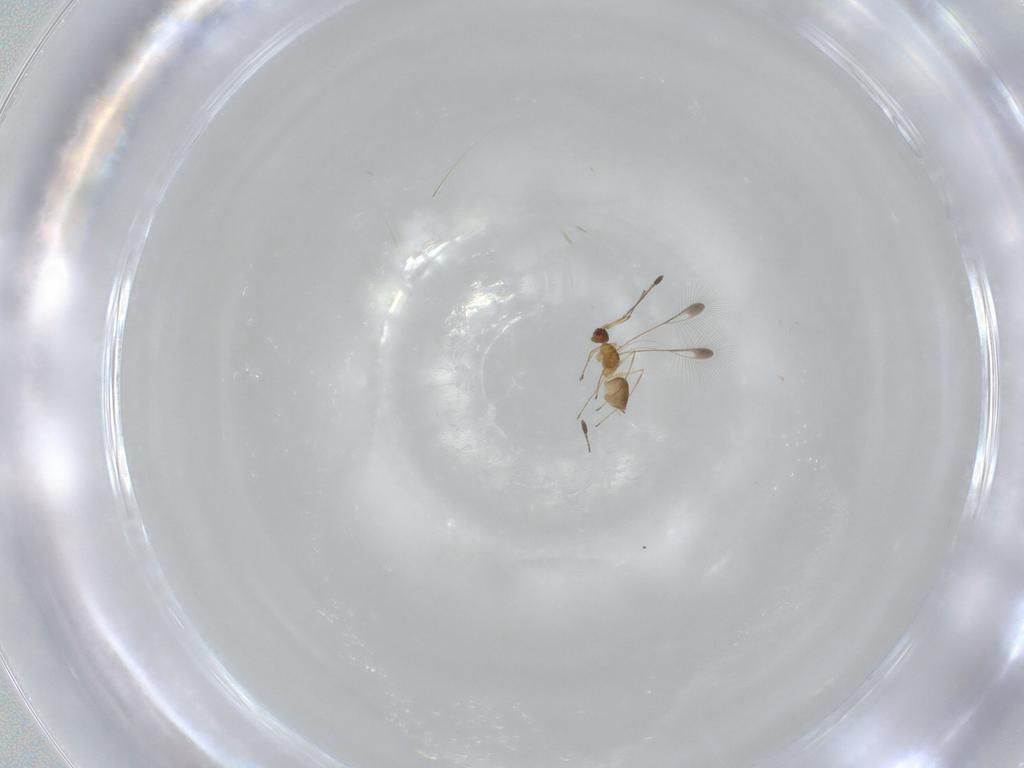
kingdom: Animalia
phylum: Arthropoda
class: Insecta
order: Hymenoptera
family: Mymaridae
